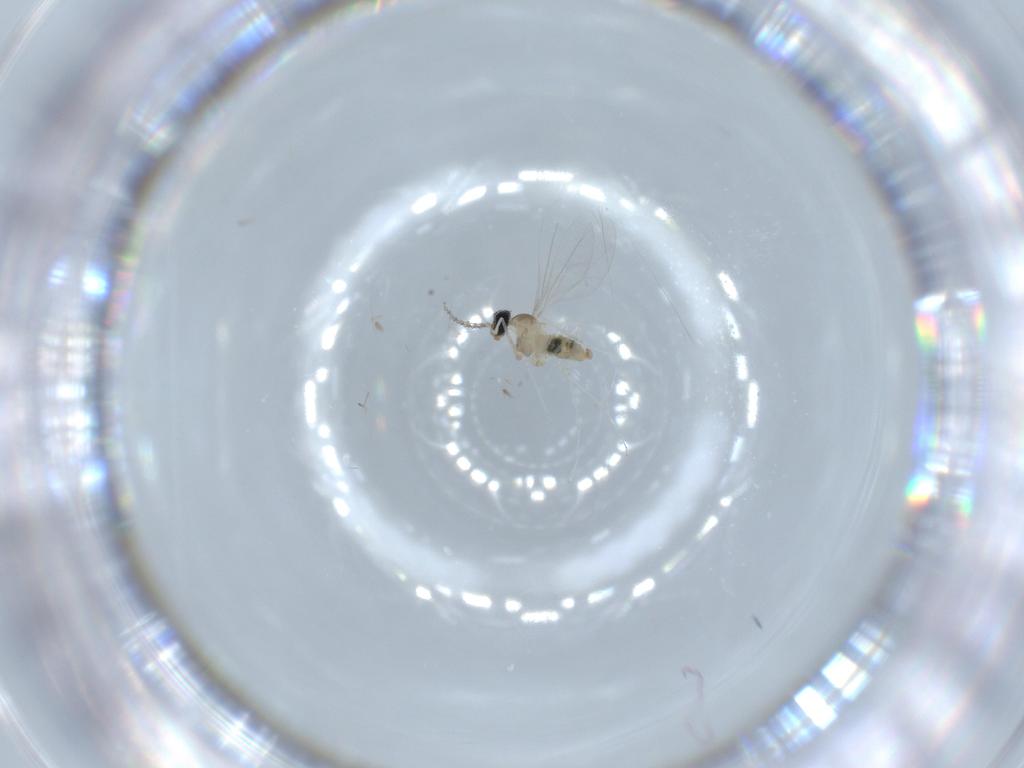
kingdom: Animalia
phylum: Arthropoda
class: Insecta
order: Diptera
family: Cecidomyiidae
